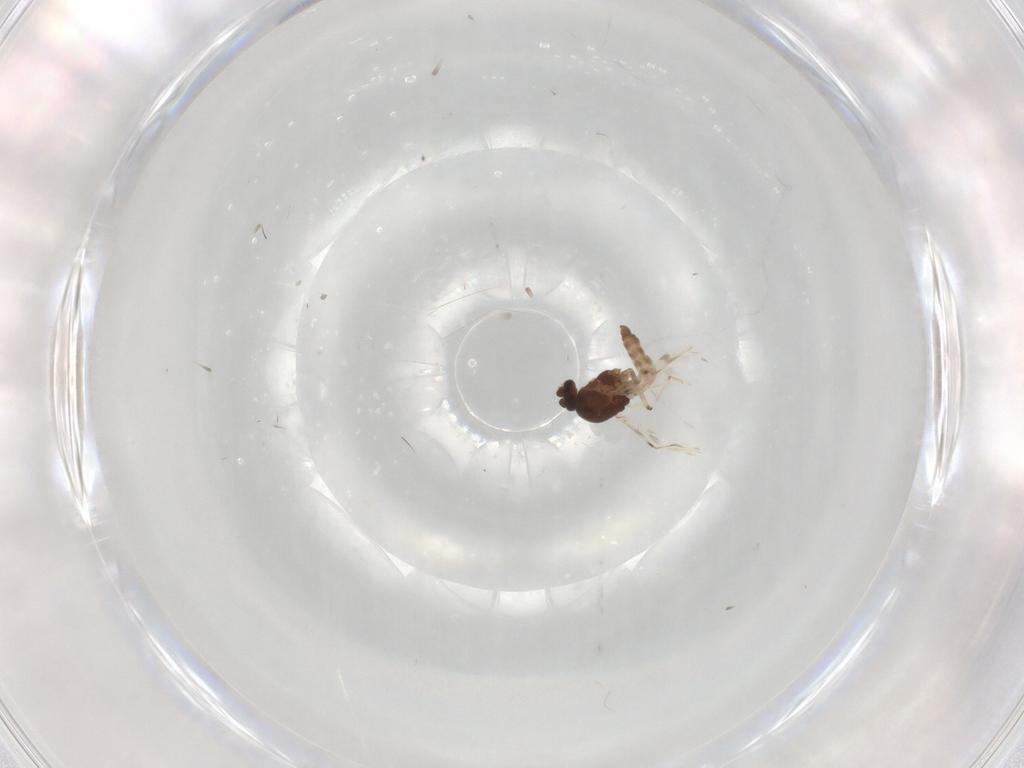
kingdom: Animalia
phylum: Arthropoda
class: Insecta
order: Diptera
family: Ceratopogonidae
